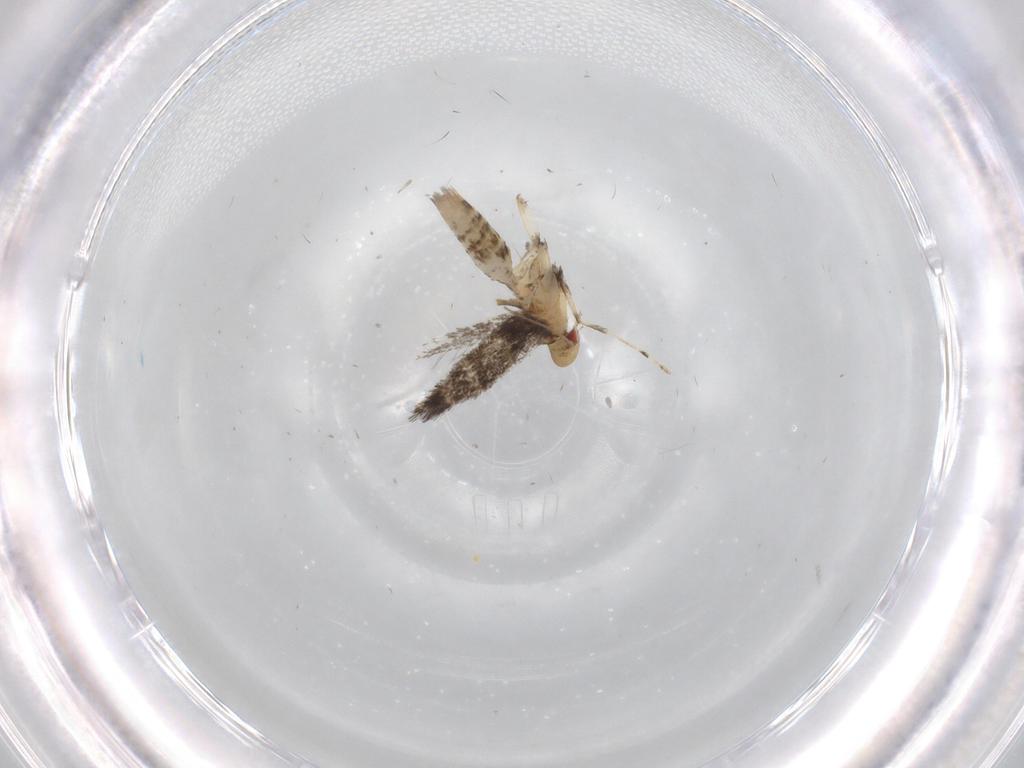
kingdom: Animalia
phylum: Arthropoda
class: Insecta
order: Lepidoptera
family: Gracillariidae
